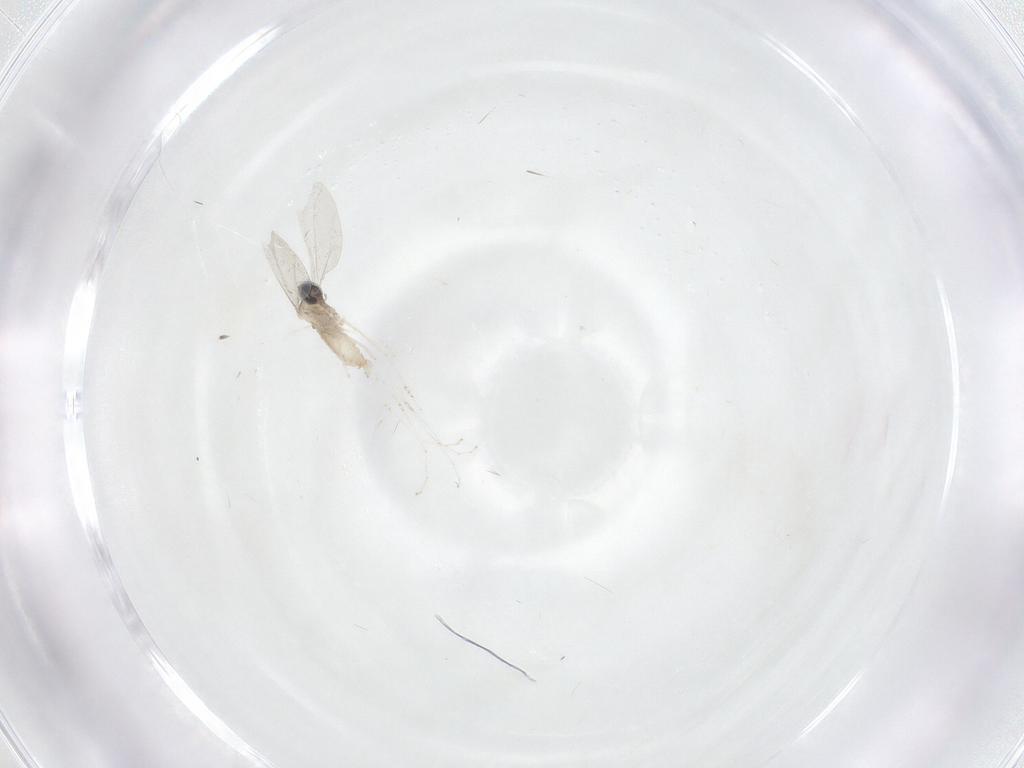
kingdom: Animalia
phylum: Arthropoda
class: Insecta
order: Diptera
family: Cecidomyiidae
